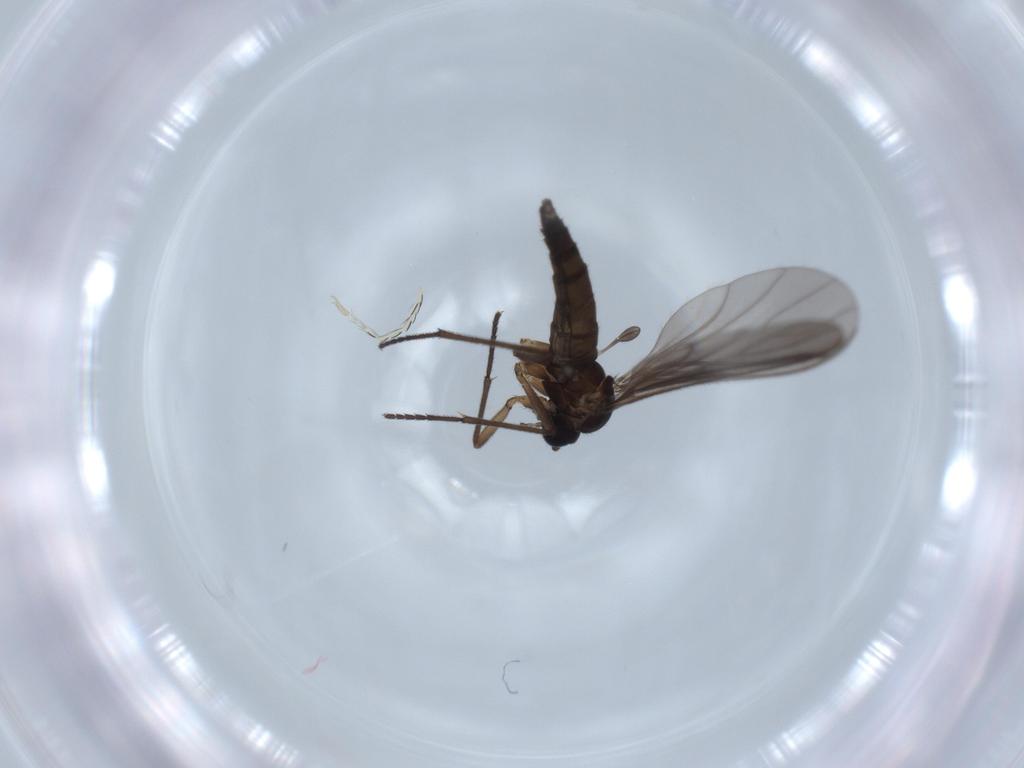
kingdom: Animalia
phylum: Arthropoda
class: Insecta
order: Diptera
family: Sciaridae
